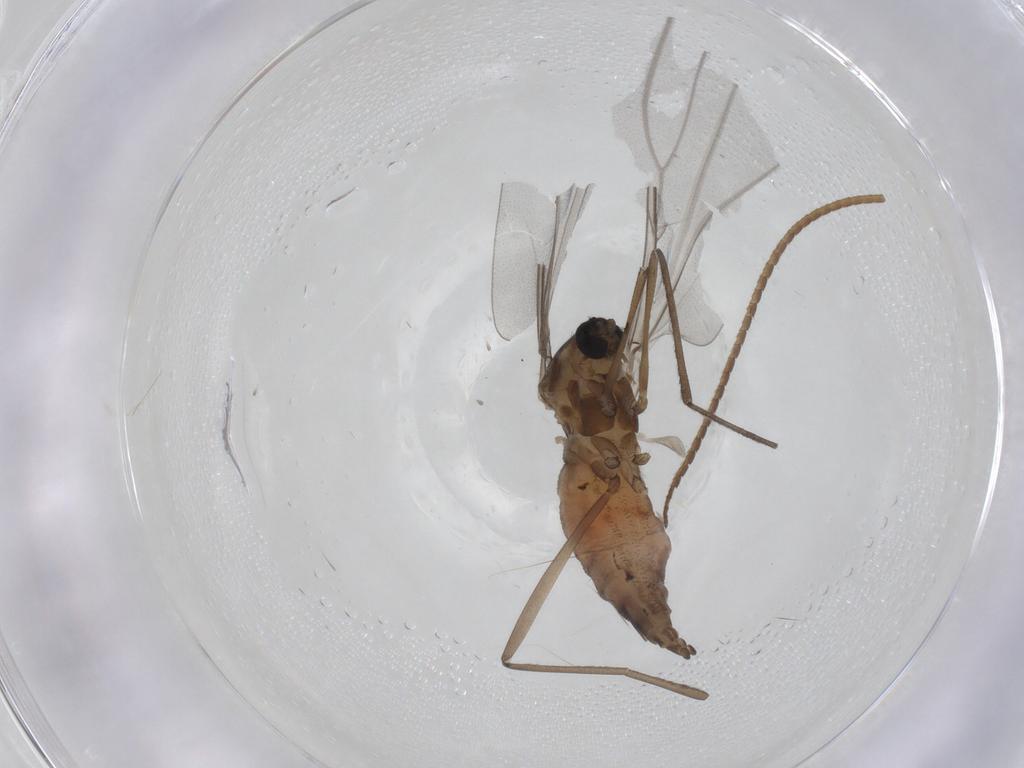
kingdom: Animalia
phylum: Arthropoda
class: Insecta
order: Diptera
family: Cecidomyiidae
